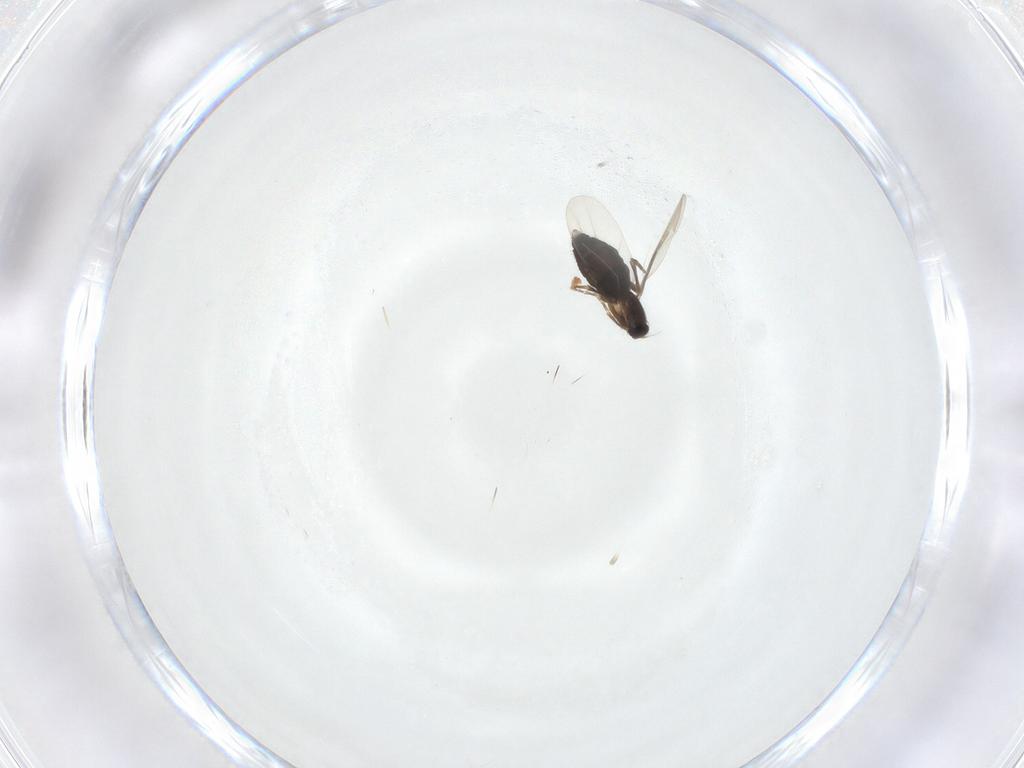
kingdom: Animalia
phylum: Arthropoda
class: Insecta
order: Diptera
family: Phoridae
